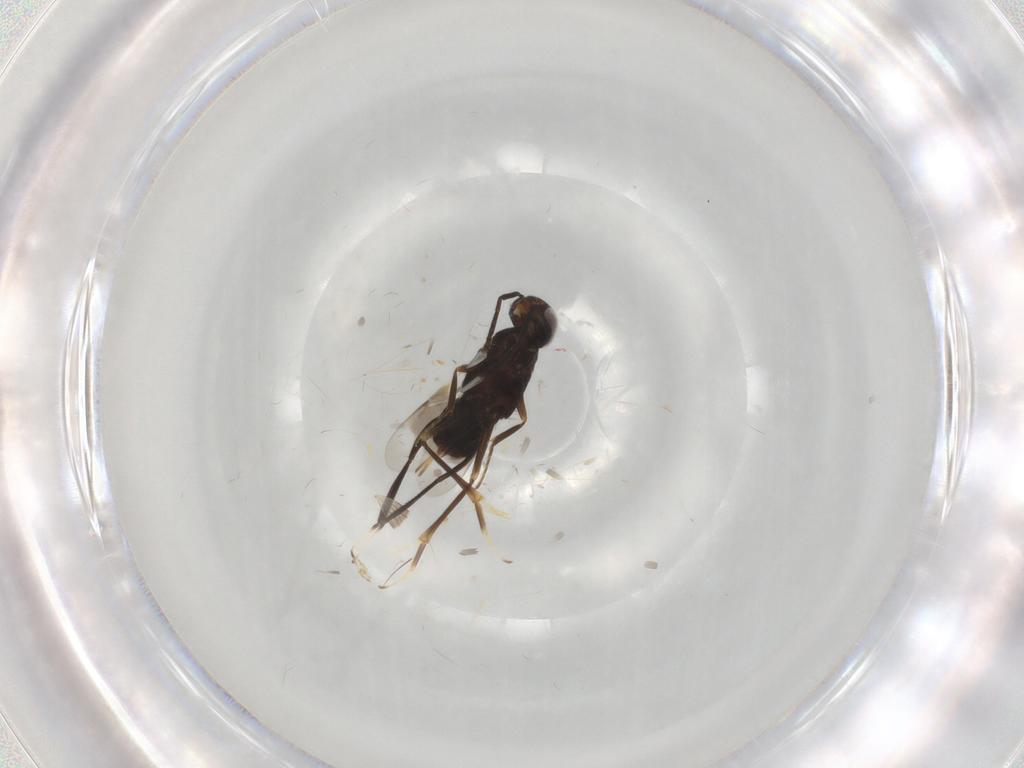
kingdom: Animalia
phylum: Arthropoda
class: Insecta
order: Hymenoptera
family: Mymaridae
